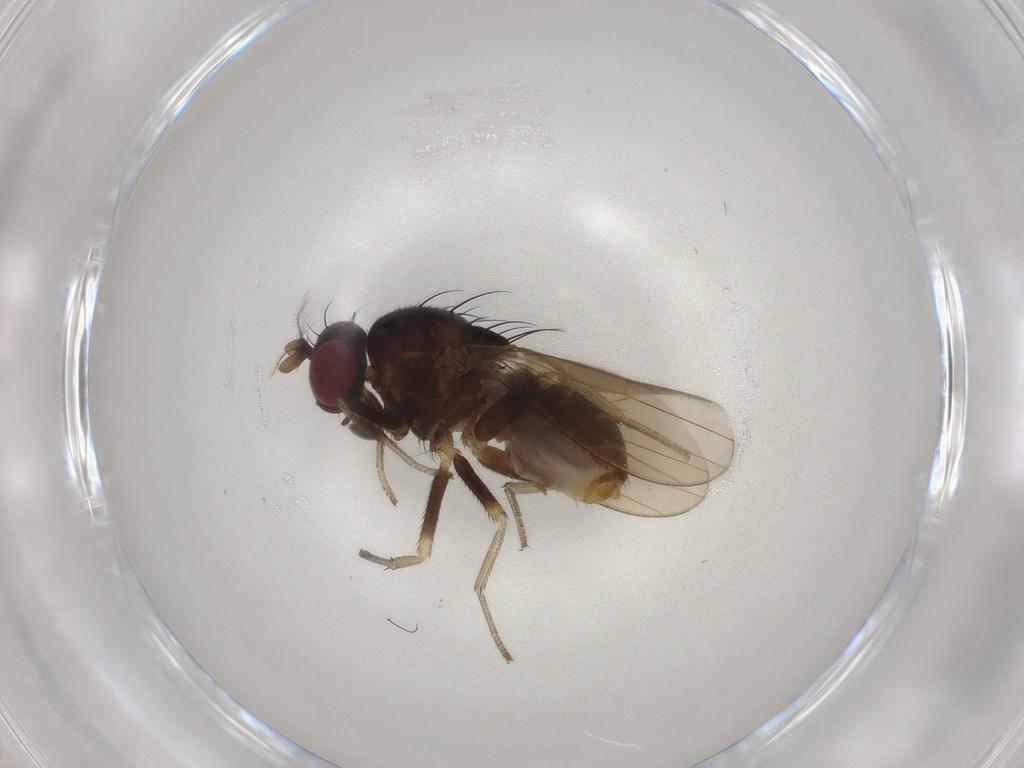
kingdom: Animalia
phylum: Arthropoda
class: Insecta
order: Diptera
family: Lauxaniidae
